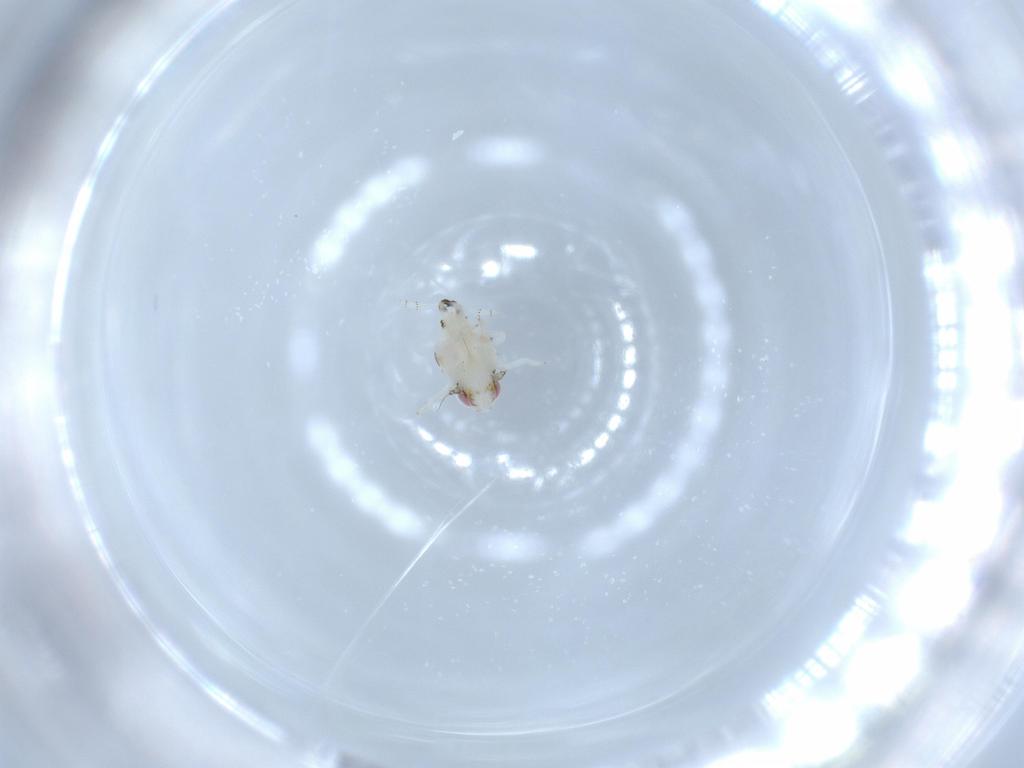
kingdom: Animalia
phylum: Arthropoda
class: Insecta
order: Hemiptera
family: Nogodinidae
